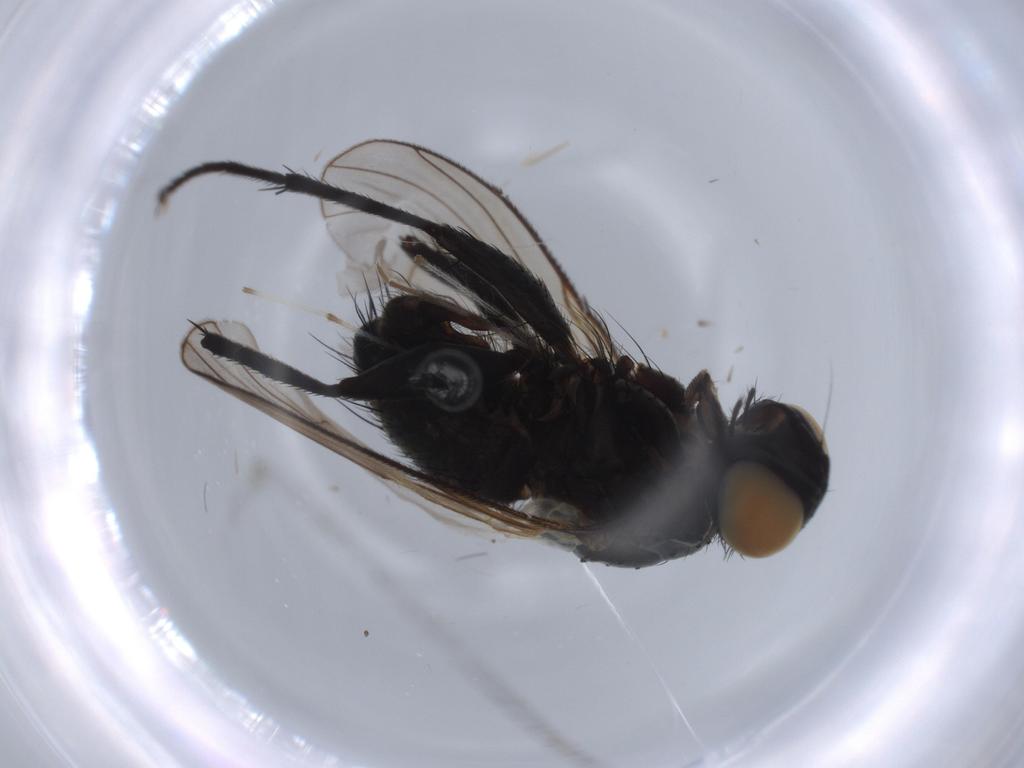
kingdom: Animalia
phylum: Arthropoda
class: Insecta
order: Diptera
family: Muscidae
